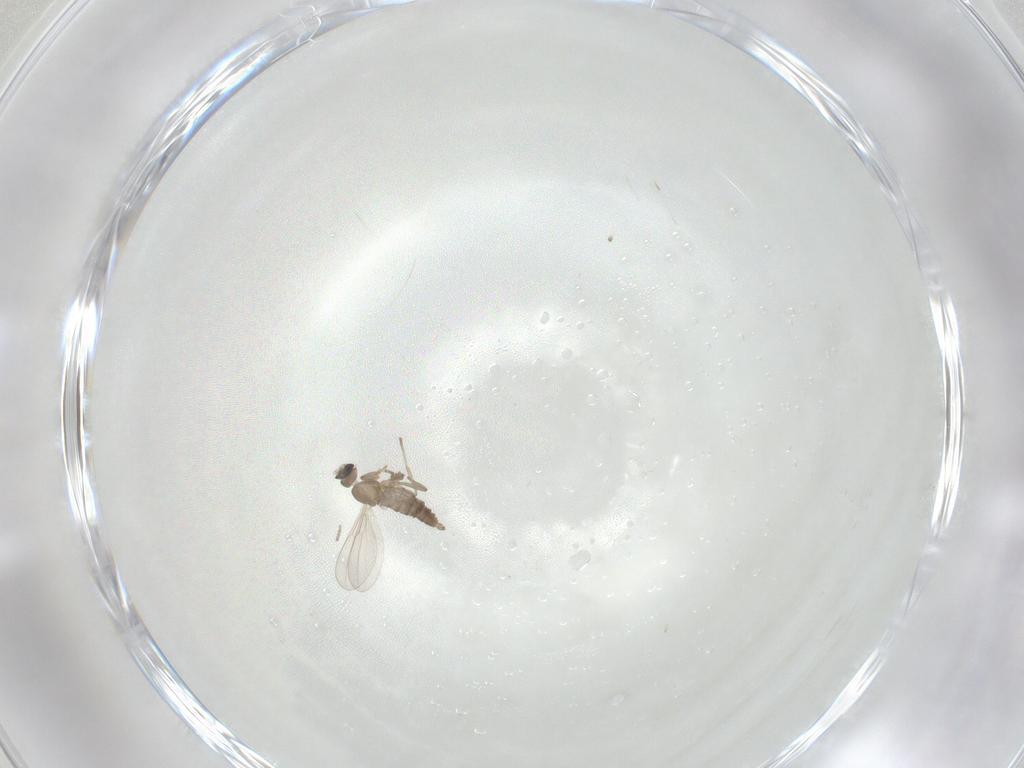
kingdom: Animalia
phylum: Arthropoda
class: Insecta
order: Diptera
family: Cecidomyiidae
